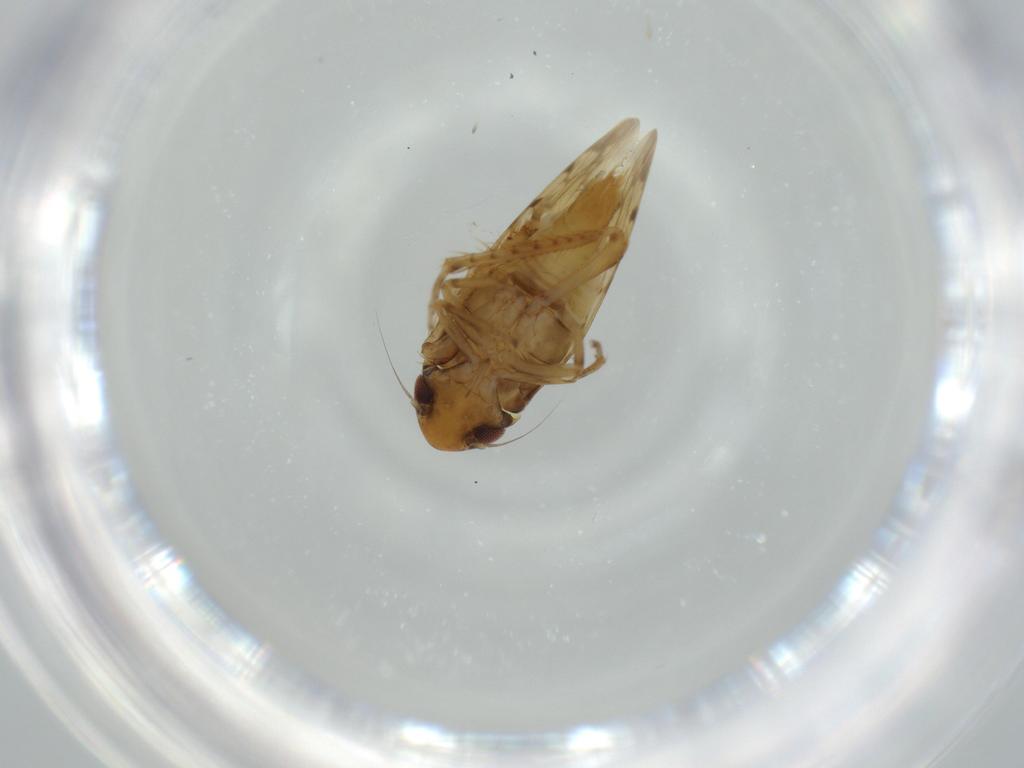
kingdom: Animalia
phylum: Arthropoda
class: Insecta
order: Hemiptera
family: Cicadellidae
